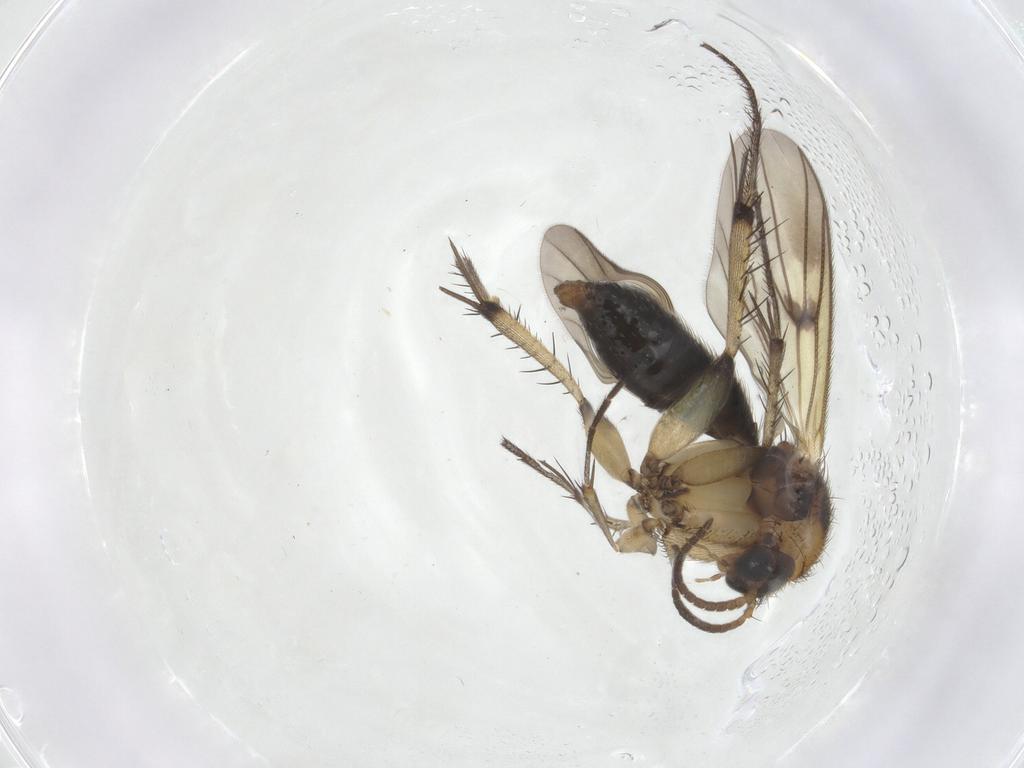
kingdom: Animalia
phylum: Arthropoda
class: Insecta
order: Diptera
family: Mycetophilidae
